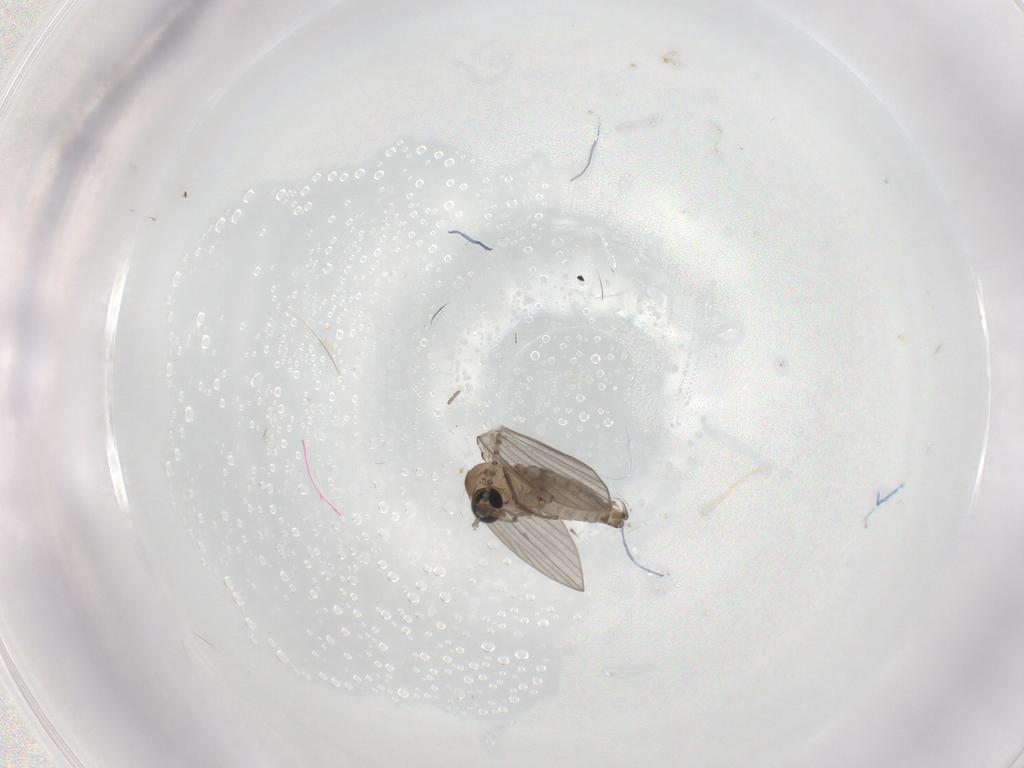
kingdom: Animalia
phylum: Arthropoda
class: Insecta
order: Diptera
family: Psychodidae
